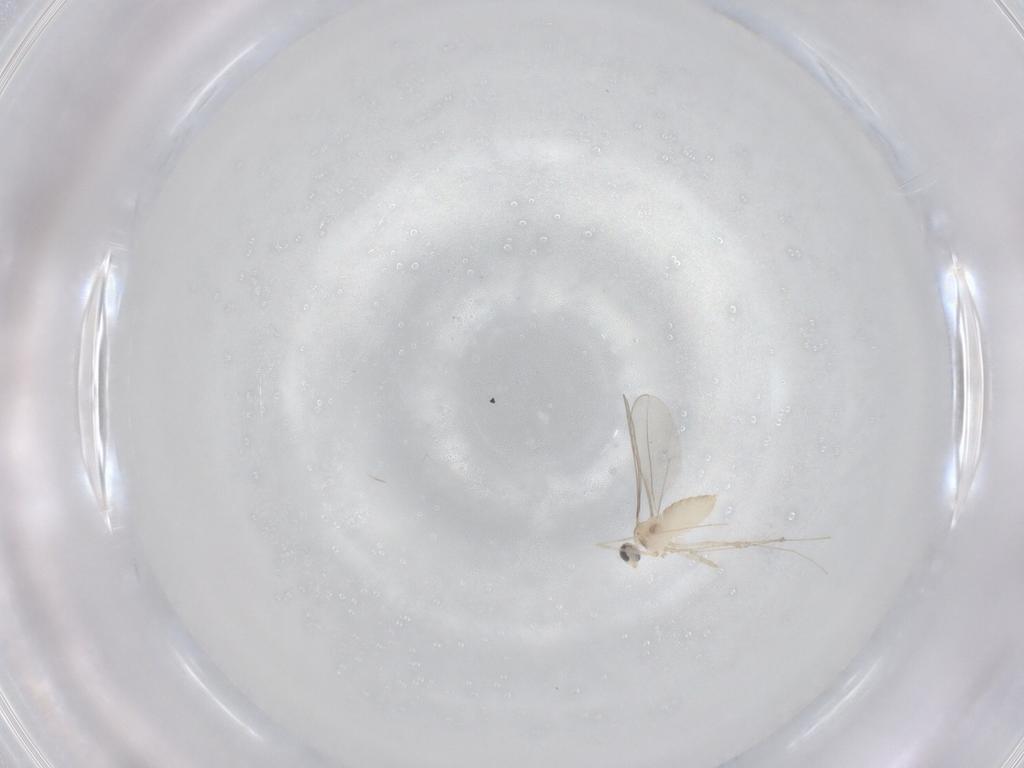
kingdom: Animalia
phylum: Arthropoda
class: Insecta
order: Diptera
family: Cecidomyiidae
